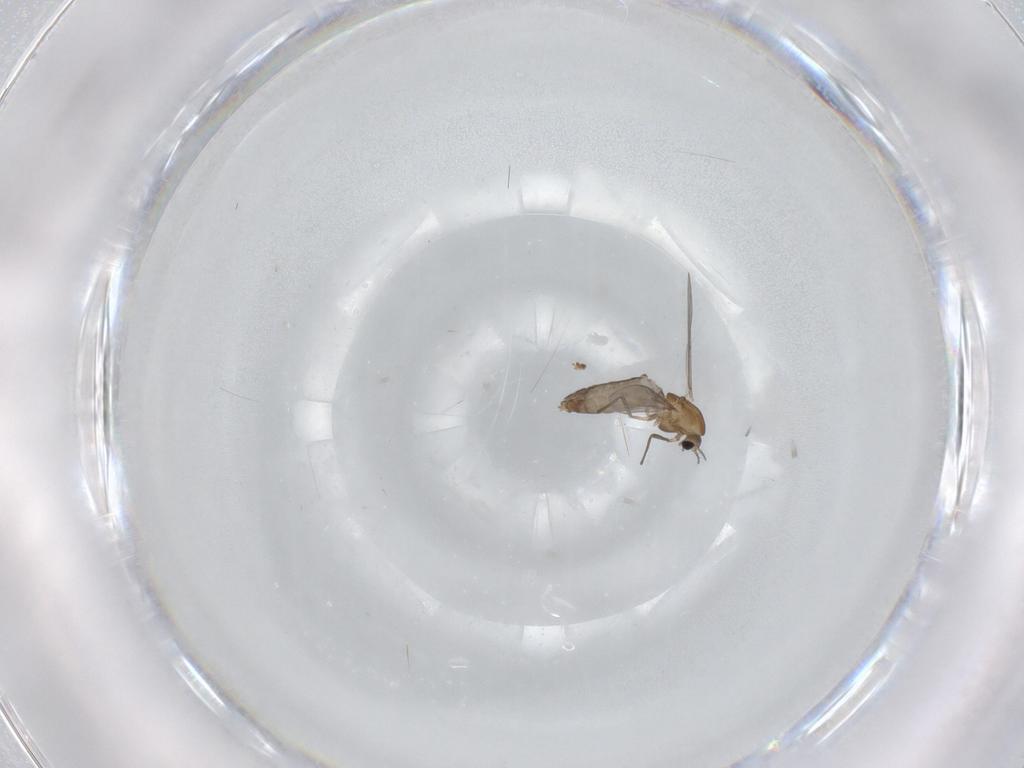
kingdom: Animalia
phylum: Arthropoda
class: Insecta
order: Diptera
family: Chironomidae
